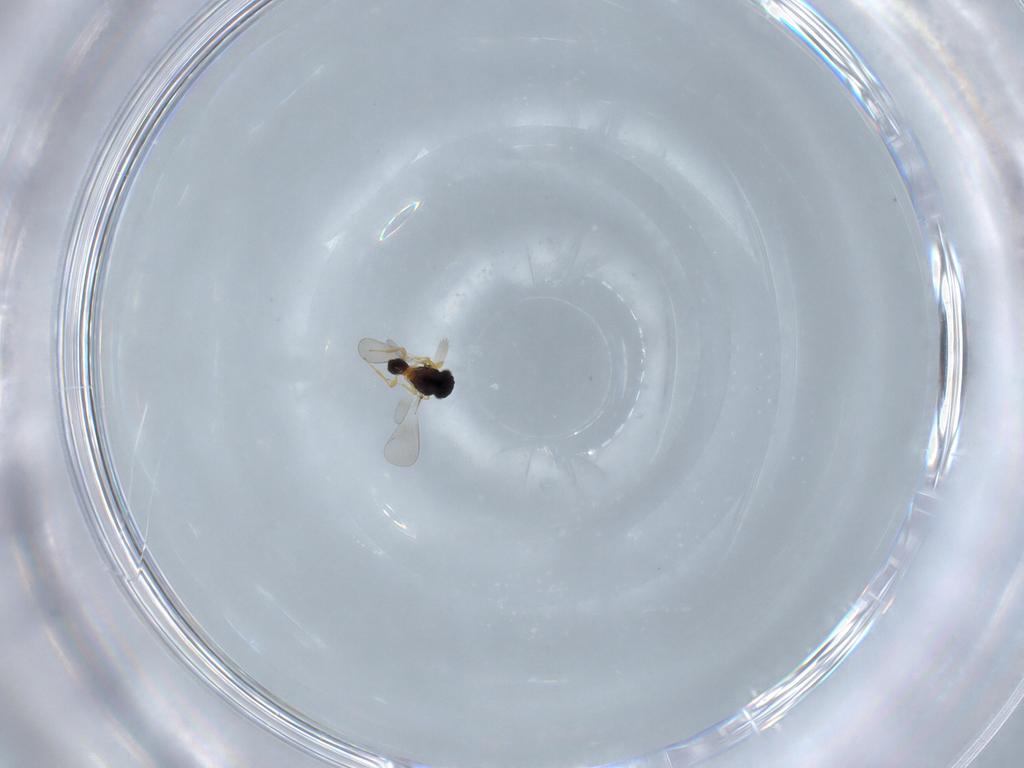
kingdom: Animalia
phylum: Arthropoda
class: Insecta
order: Hymenoptera
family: Platygastridae
